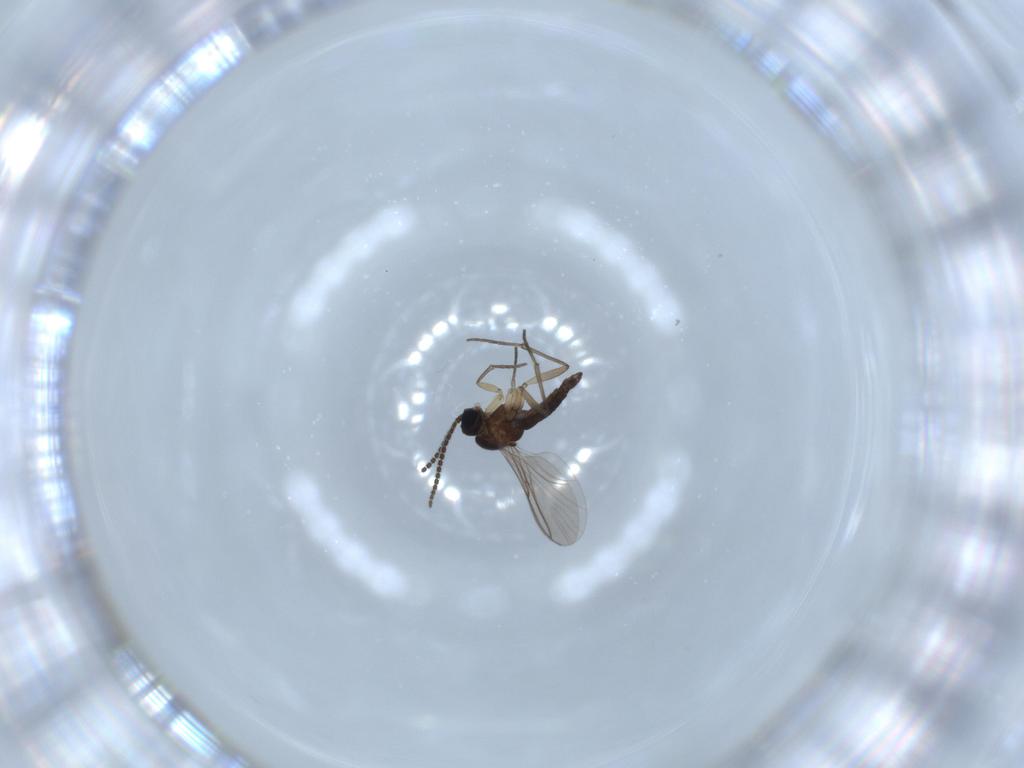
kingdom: Animalia
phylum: Arthropoda
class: Insecta
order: Diptera
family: Sciaridae
